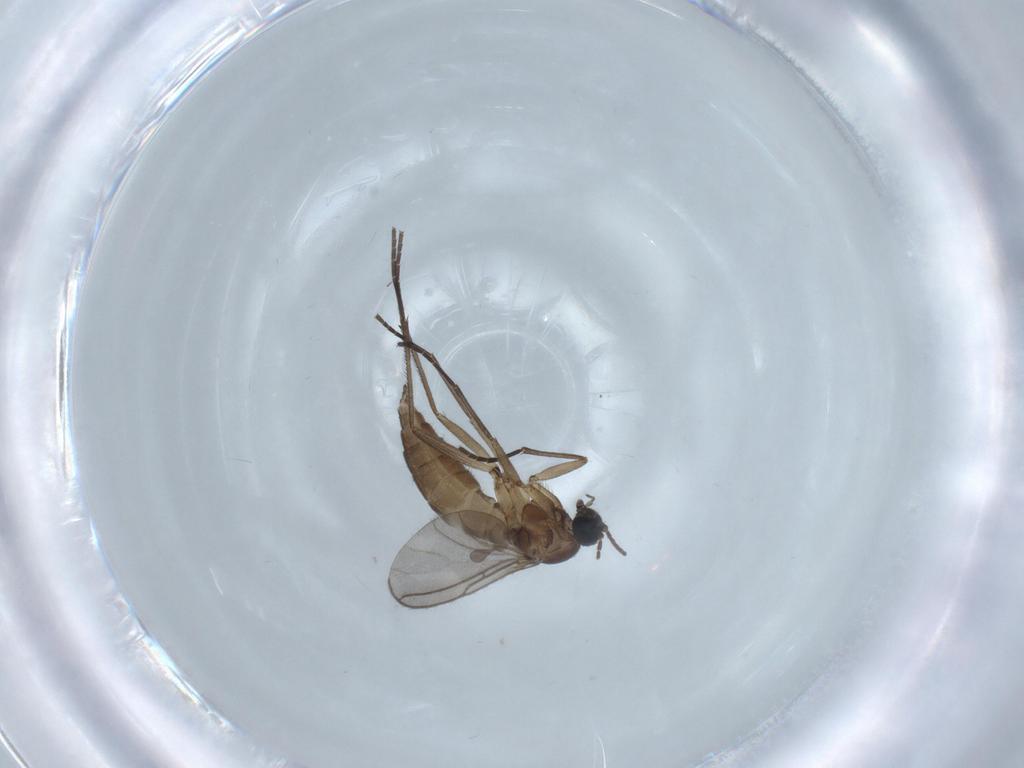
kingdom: Animalia
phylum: Arthropoda
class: Insecta
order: Diptera
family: Sciaridae
